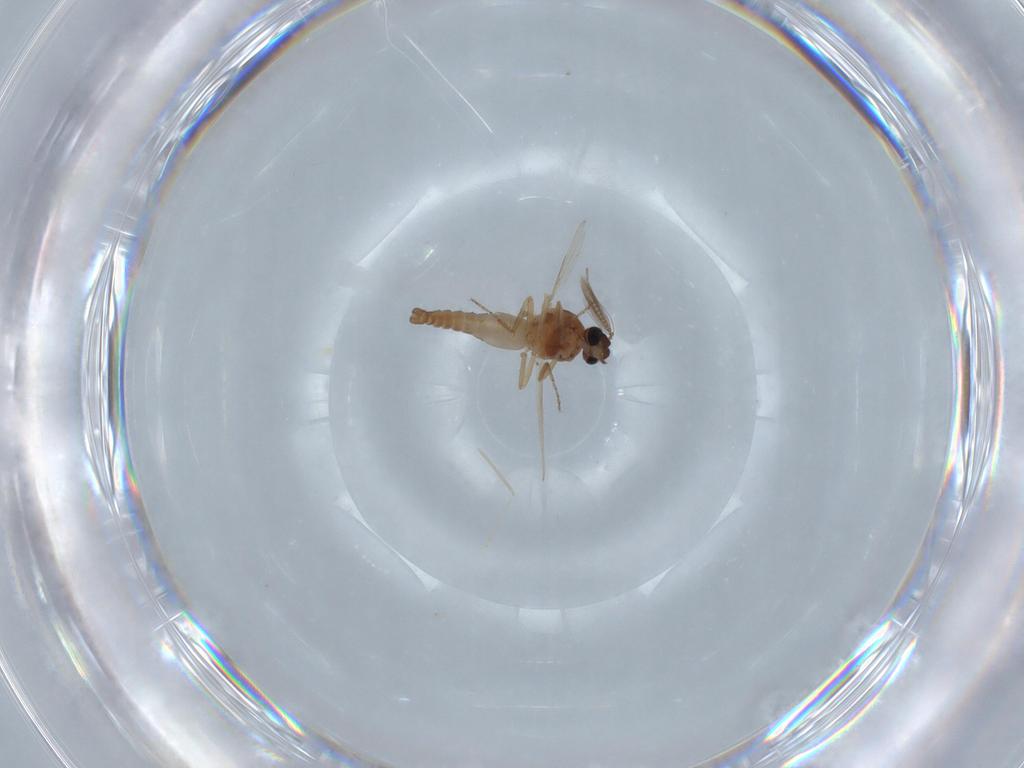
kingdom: Animalia
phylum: Arthropoda
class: Insecta
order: Diptera
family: Ceratopogonidae
